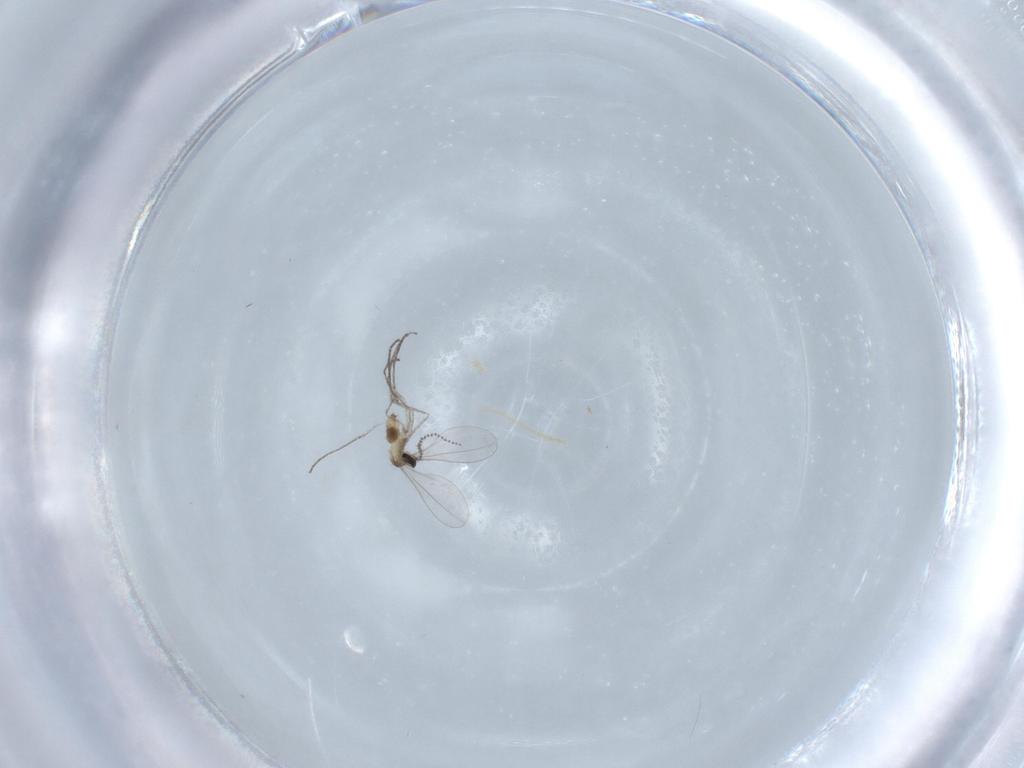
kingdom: Animalia
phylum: Arthropoda
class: Insecta
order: Diptera
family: Cecidomyiidae
